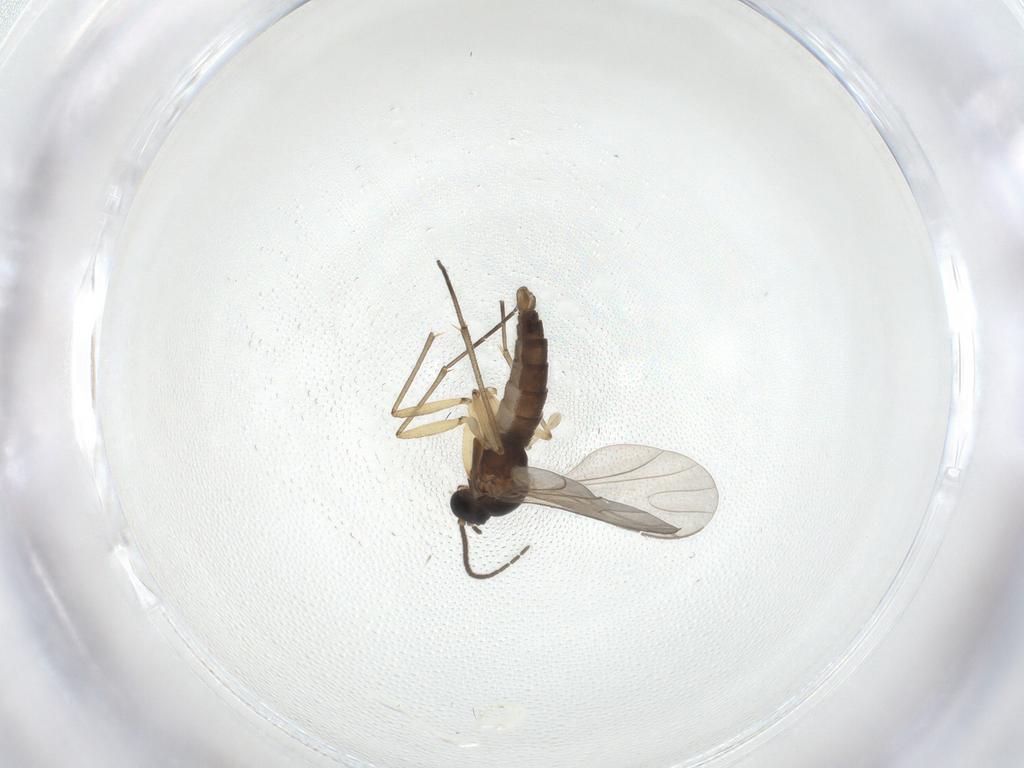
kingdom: Animalia
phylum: Arthropoda
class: Insecta
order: Diptera
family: Sciaridae
